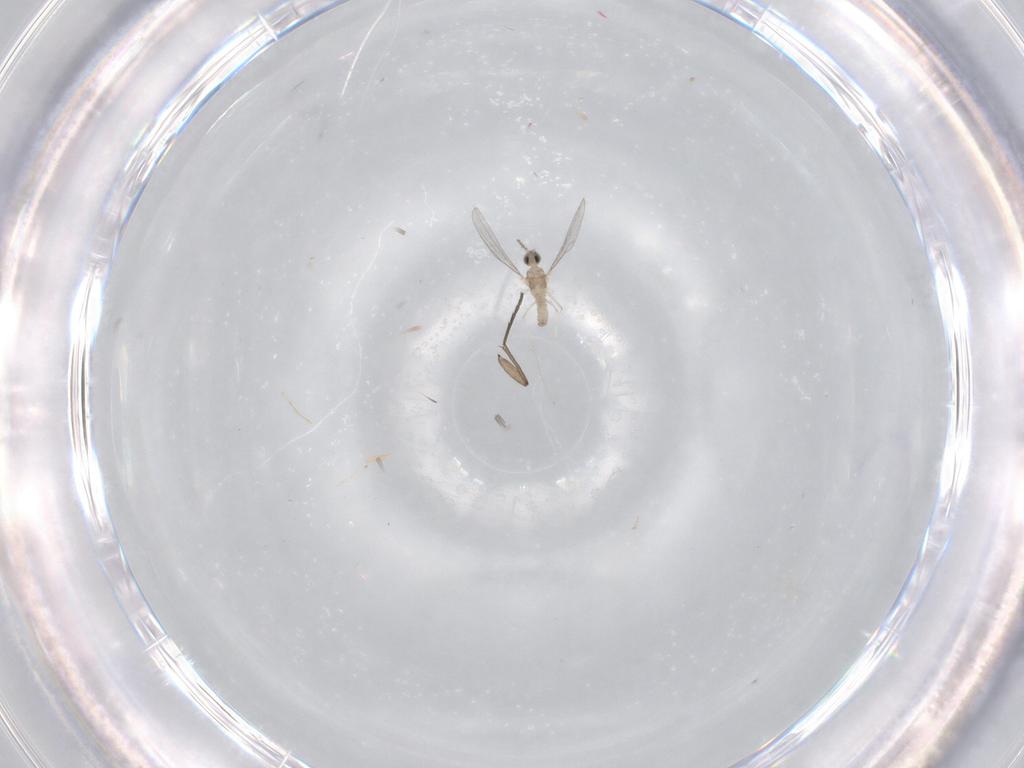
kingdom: Animalia
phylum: Arthropoda
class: Insecta
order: Diptera
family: Cecidomyiidae
